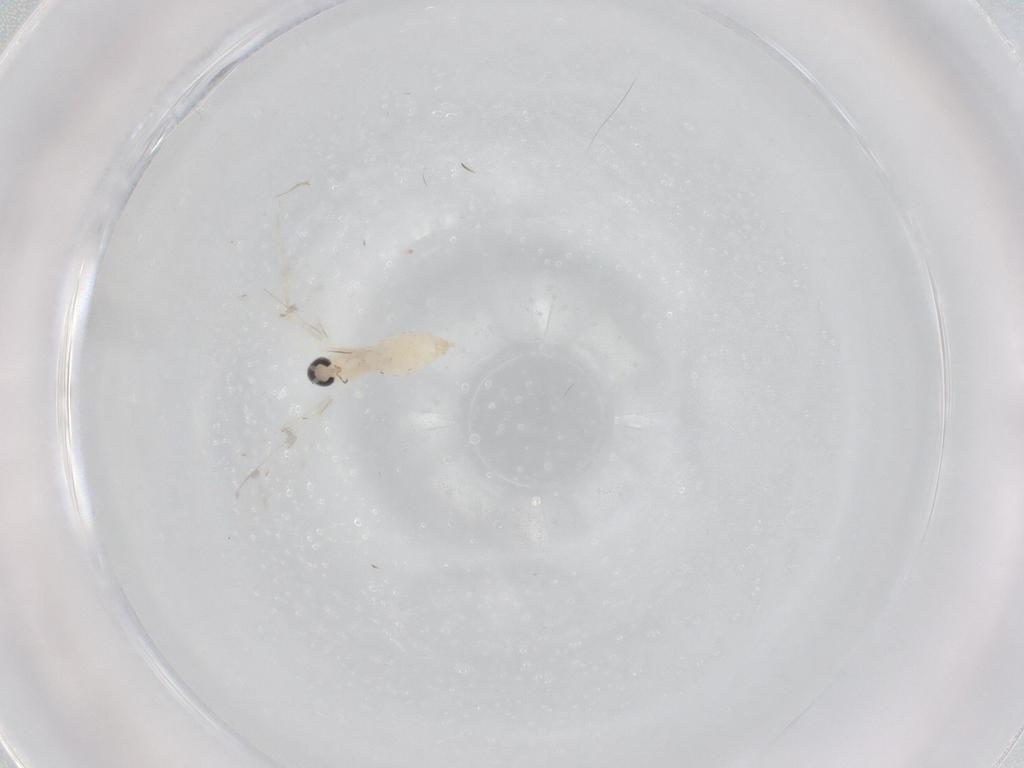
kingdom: Animalia
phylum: Arthropoda
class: Insecta
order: Diptera
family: Cecidomyiidae
